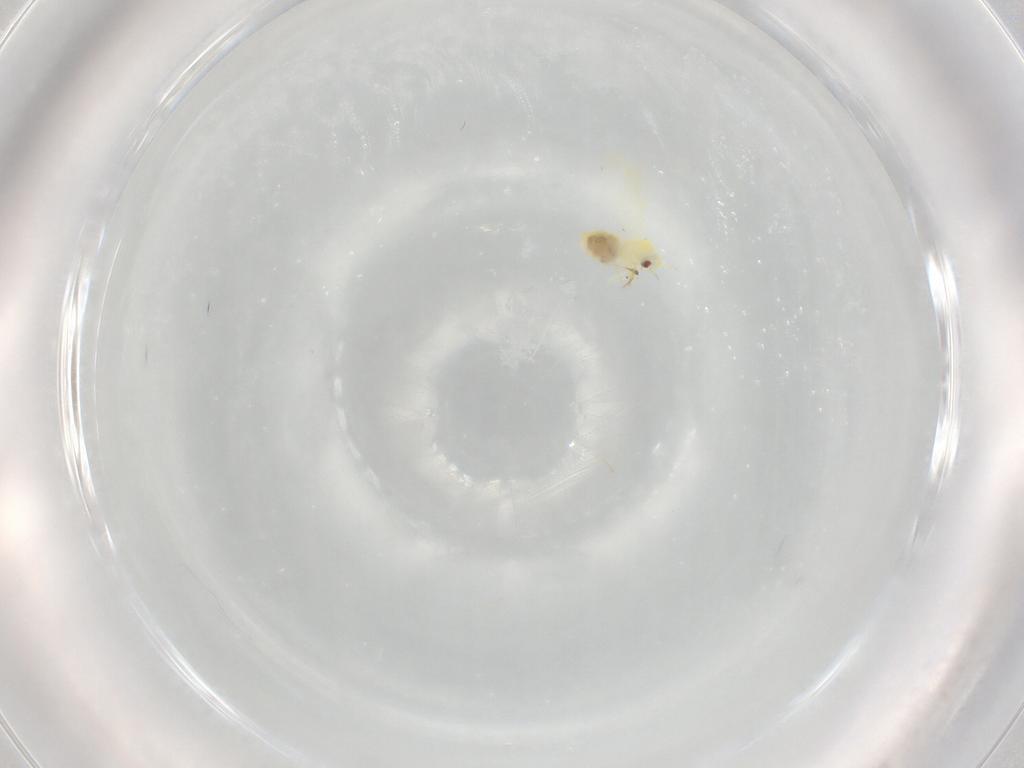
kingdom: Animalia
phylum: Arthropoda
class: Insecta
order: Hemiptera
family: Aleyrodidae
